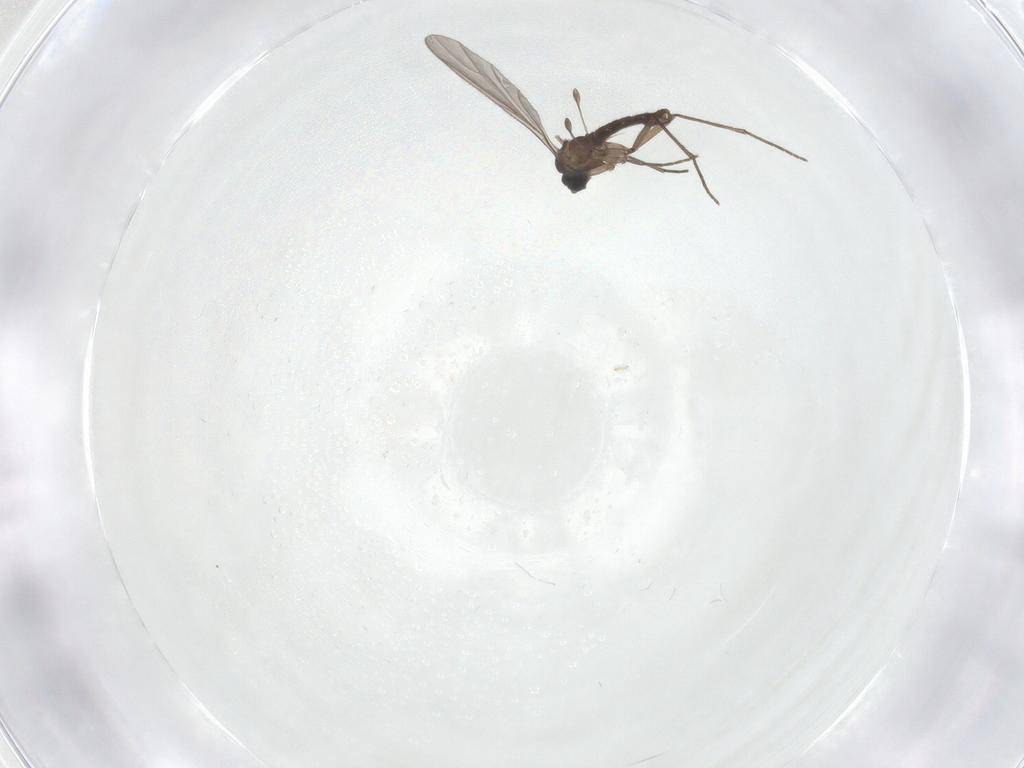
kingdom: Animalia
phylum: Arthropoda
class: Insecta
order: Diptera
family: Sciaridae
